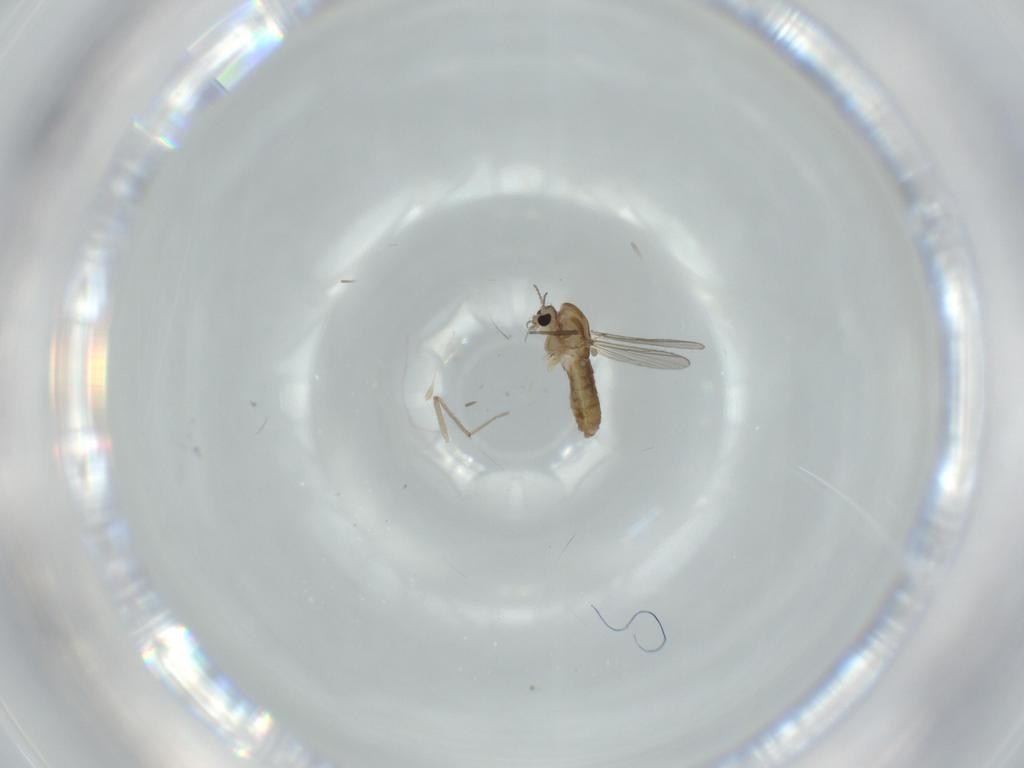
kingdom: Animalia
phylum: Arthropoda
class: Insecta
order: Diptera
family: Chironomidae
